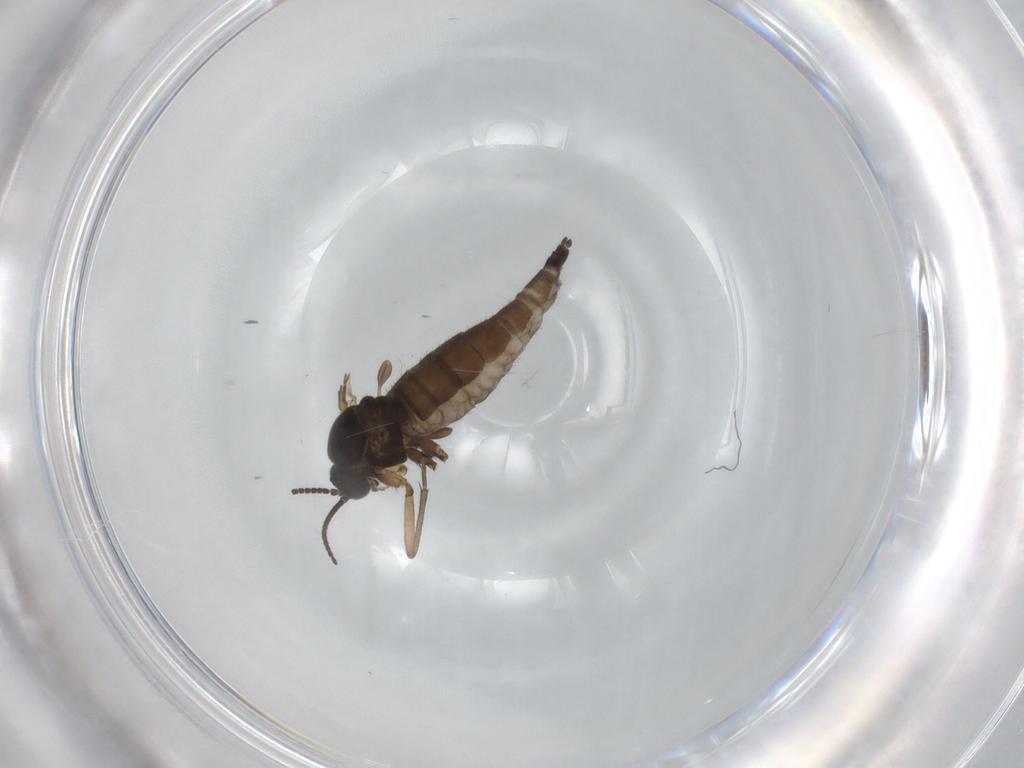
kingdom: Animalia
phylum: Arthropoda
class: Insecta
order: Diptera
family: Sciaridae
